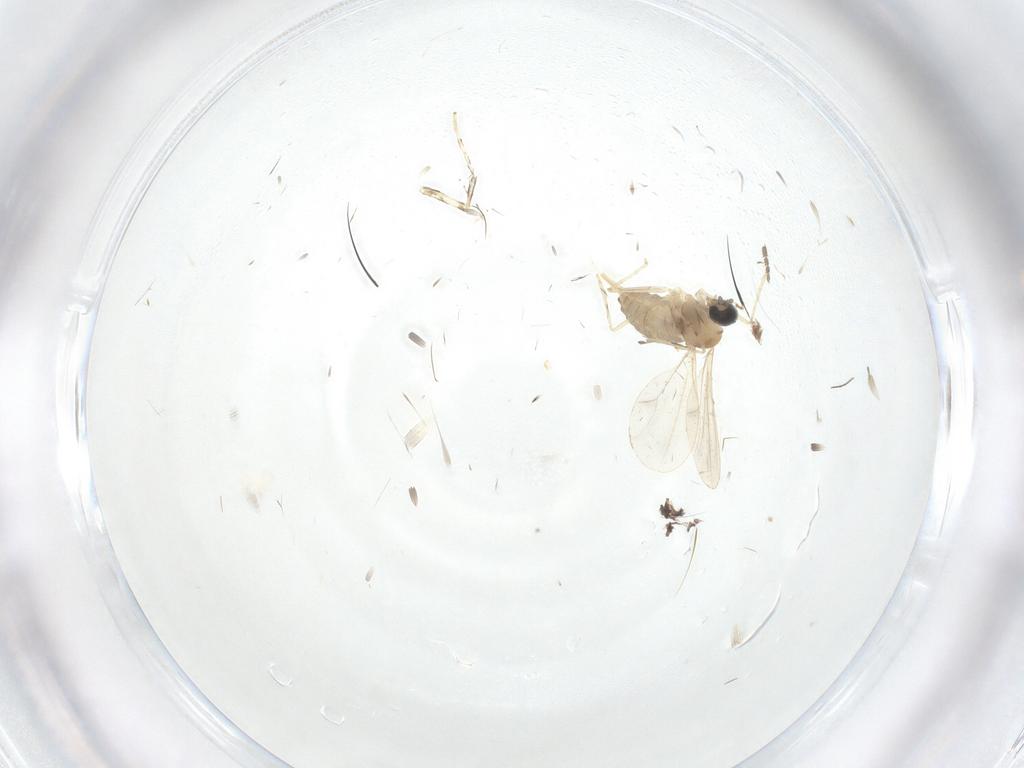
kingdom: Animalia
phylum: Arthropoda
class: Insecta
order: Diptera
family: Cecidomyiidae
